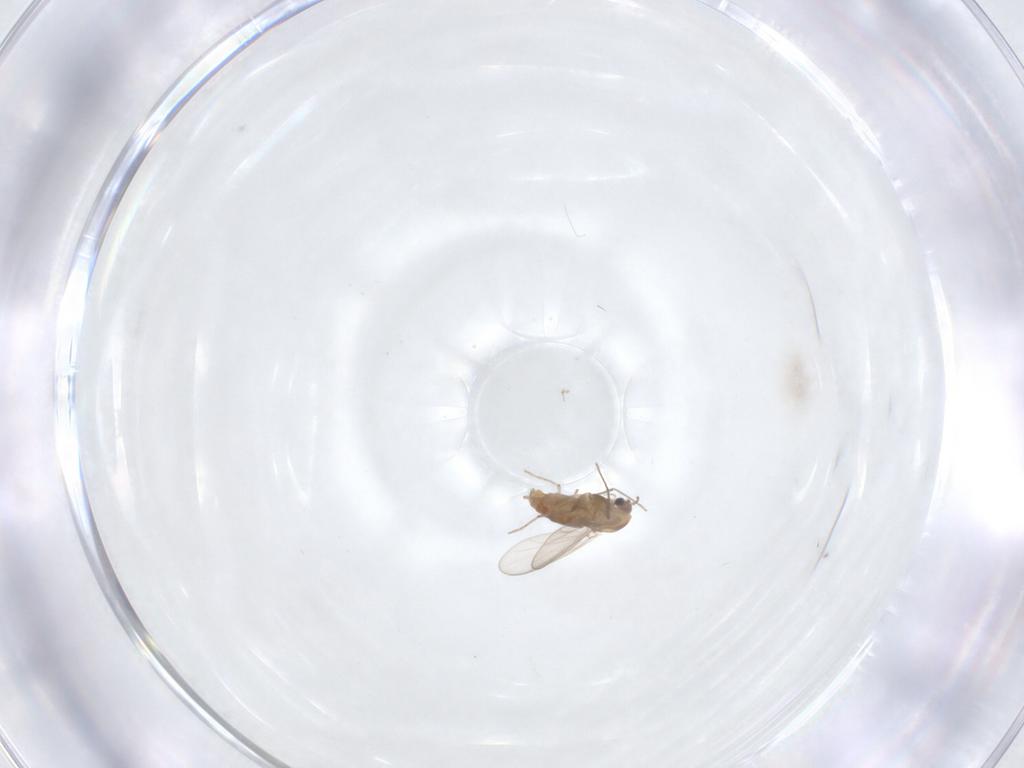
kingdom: Animalia
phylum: Arthropoda
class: Insecta
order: Diptera
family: Chironomidae
